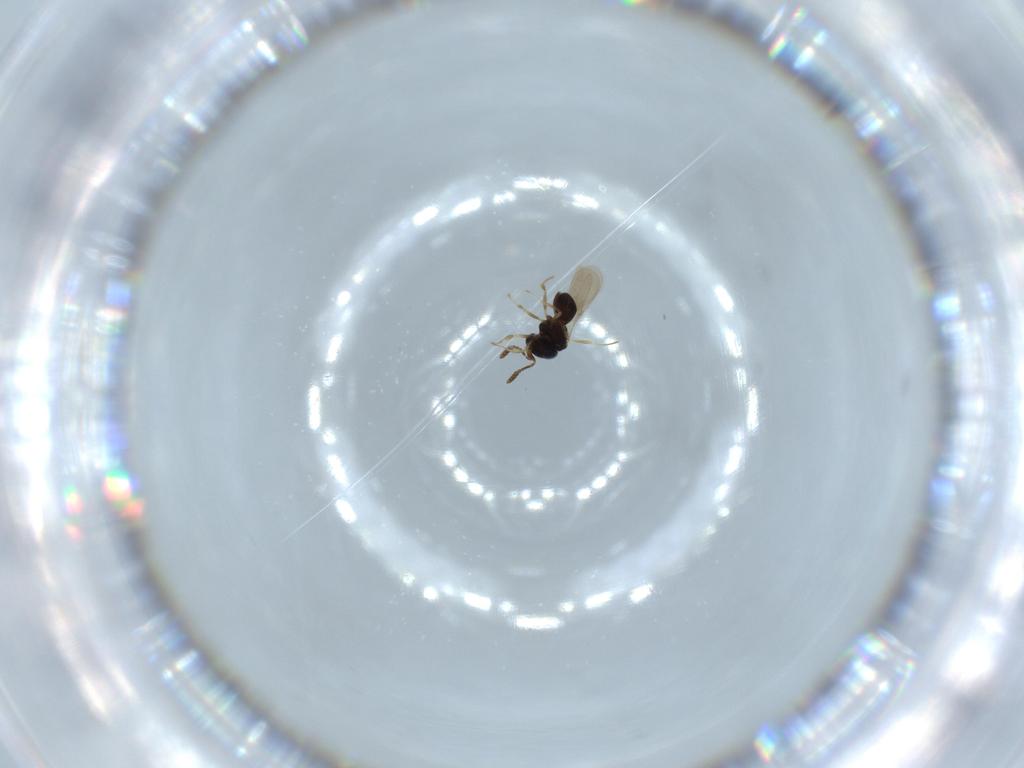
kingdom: Animalia
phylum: Arthropoda
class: Insecta
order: Hymenoptera
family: Scelionidae
